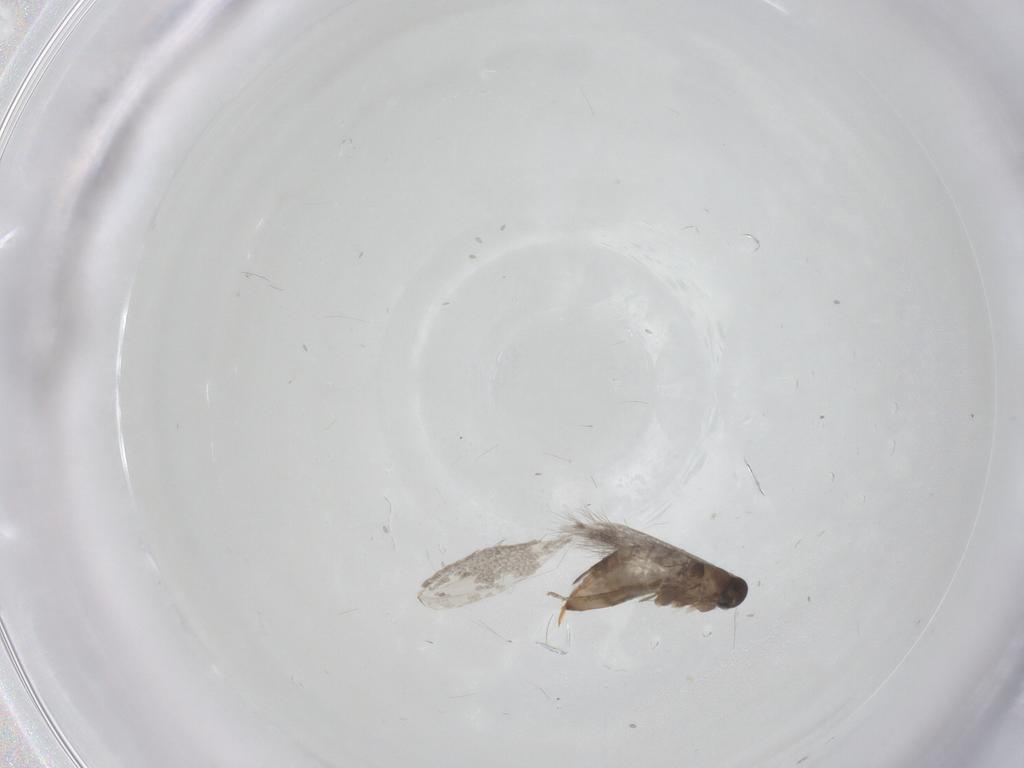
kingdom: Animalia
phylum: Arthropoda
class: Insecta
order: Lepidoptera
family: Heliozelidae
